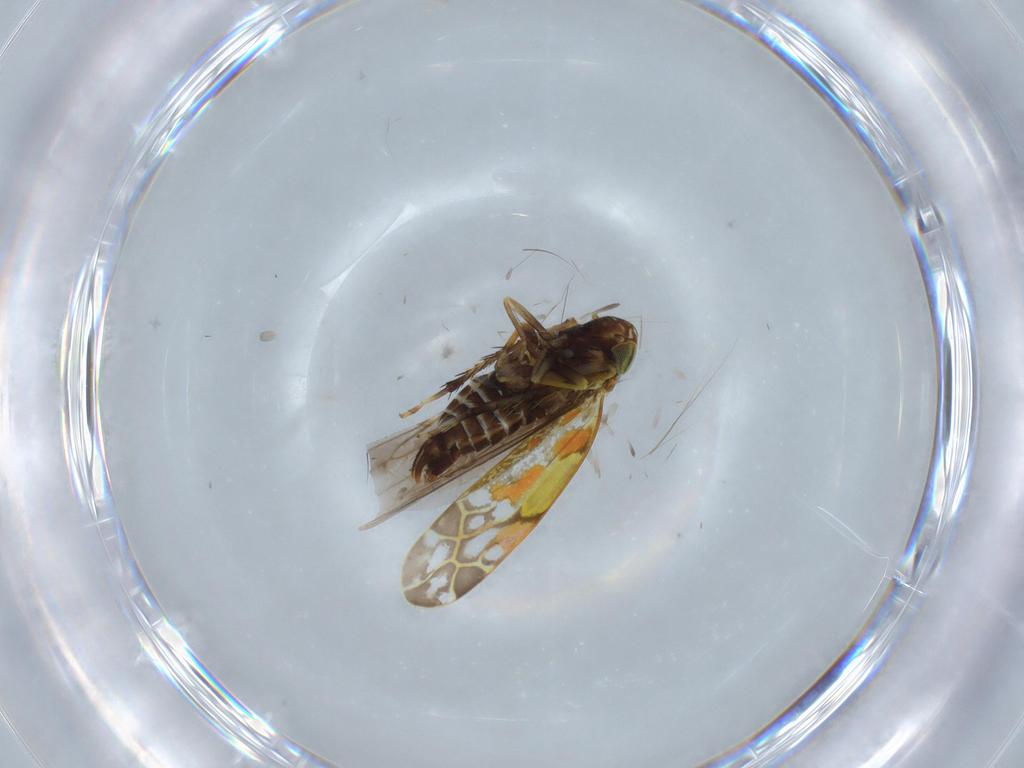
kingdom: Animalia
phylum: Arthropoda
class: Insecta
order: Hemiptera
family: Cicadellidae
